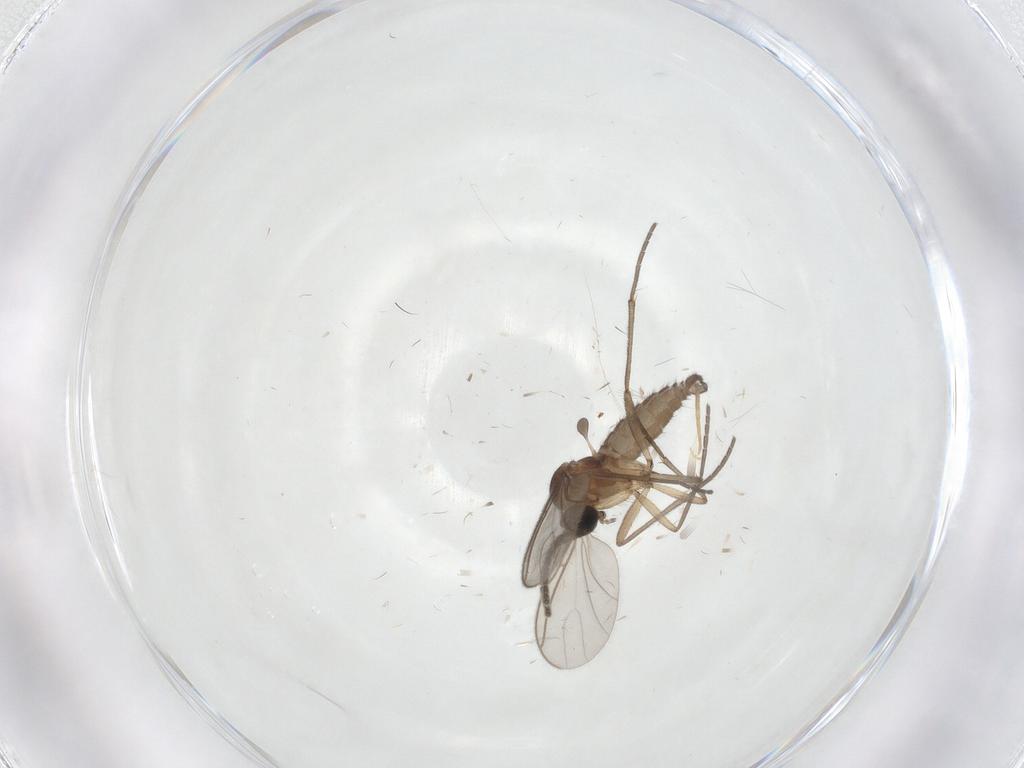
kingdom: Animalia
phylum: Arthropoda
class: Insecta
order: Diptera
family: Sciaridae
